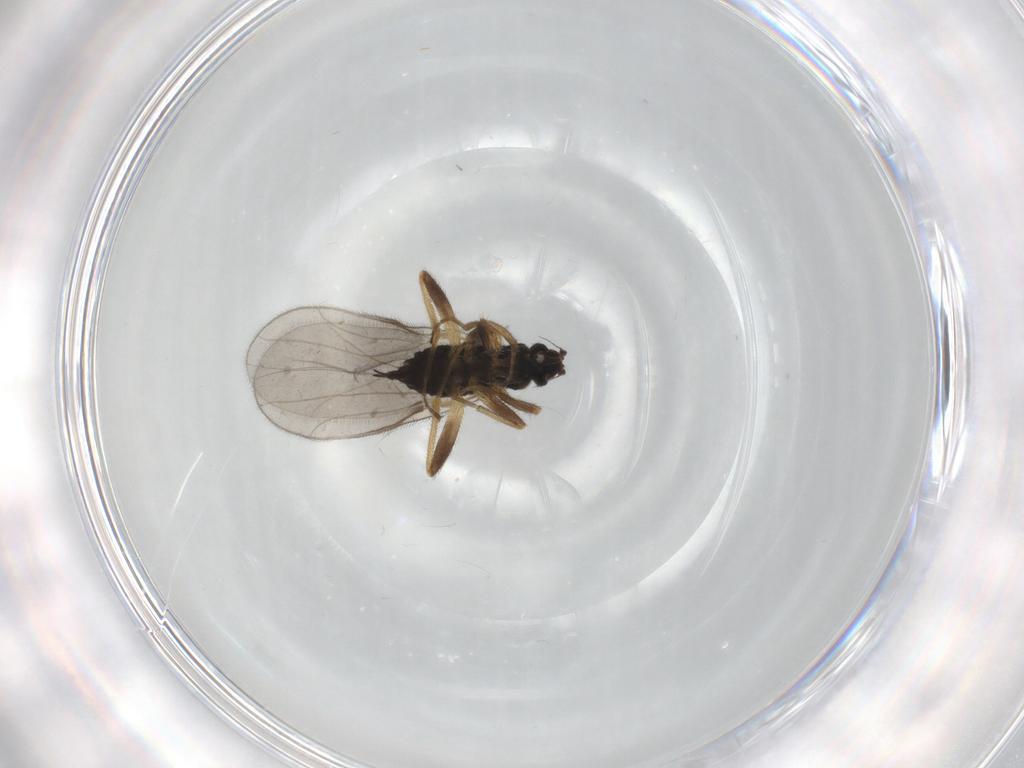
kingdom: Animalia
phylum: Arthropoda
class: Insecta
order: Diptera
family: Hybotidae
